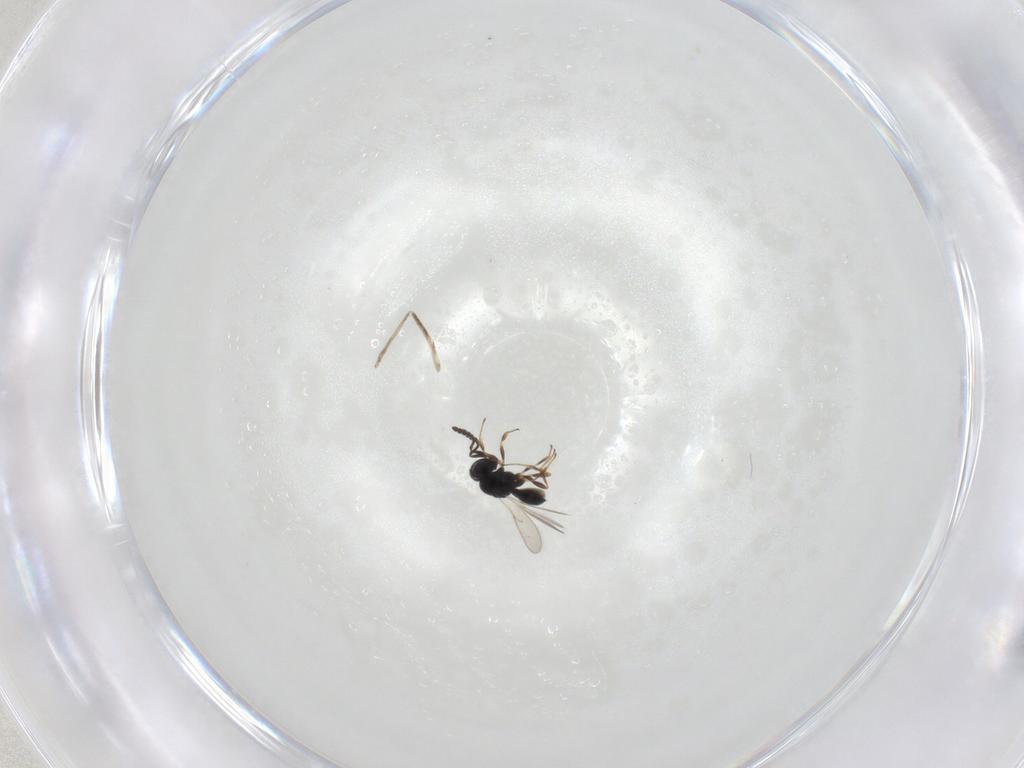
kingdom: Animalia
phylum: Arthropoda
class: Insecta
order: Hymenoptera
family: Scelionidae
